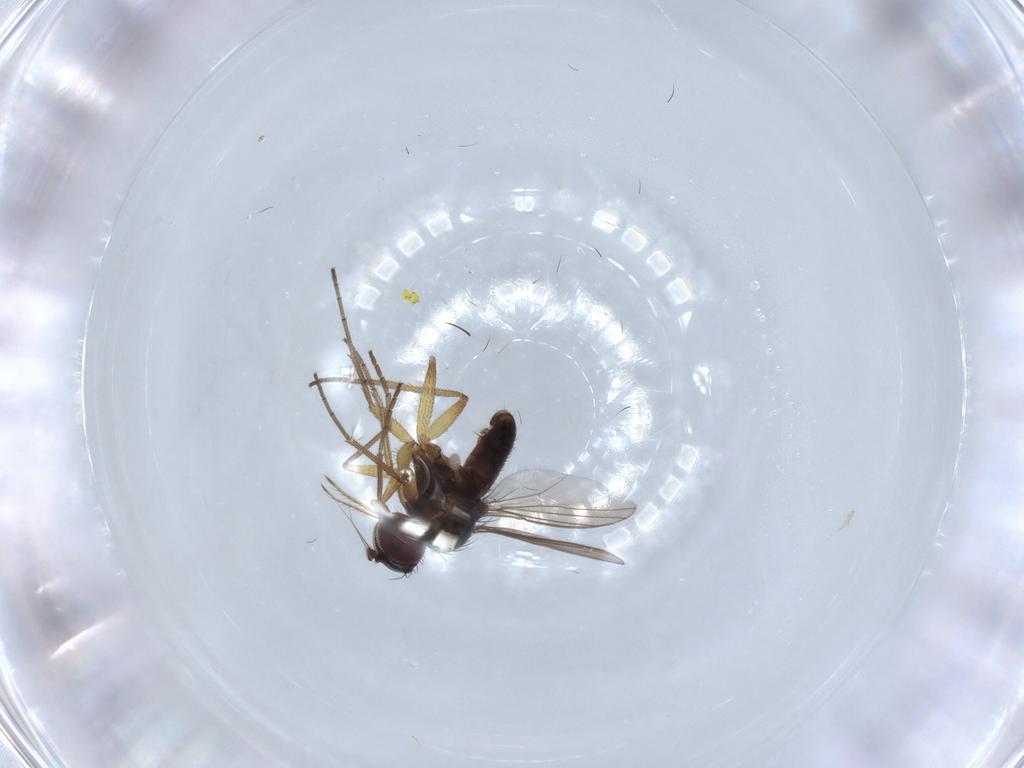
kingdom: Animalia
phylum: Arthropoda
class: Insecta
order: Diptera
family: Dolichopodidae
